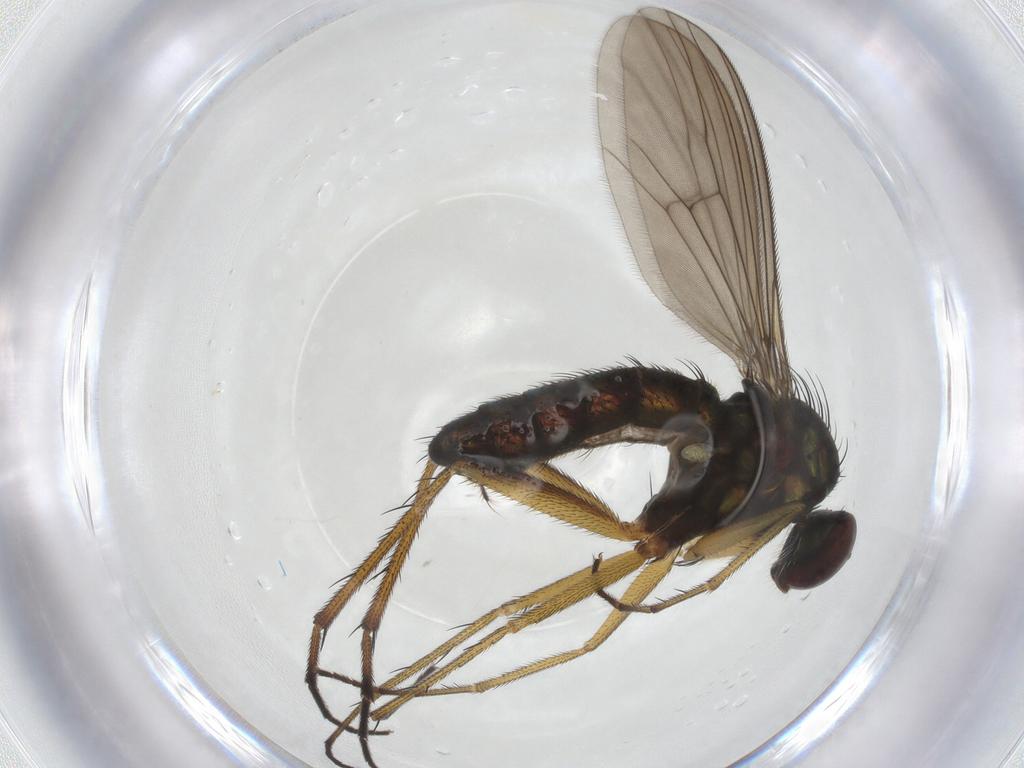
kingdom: Animalia
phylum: Arthropoda
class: Insecta
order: Diptera
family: Dolichopodidae
